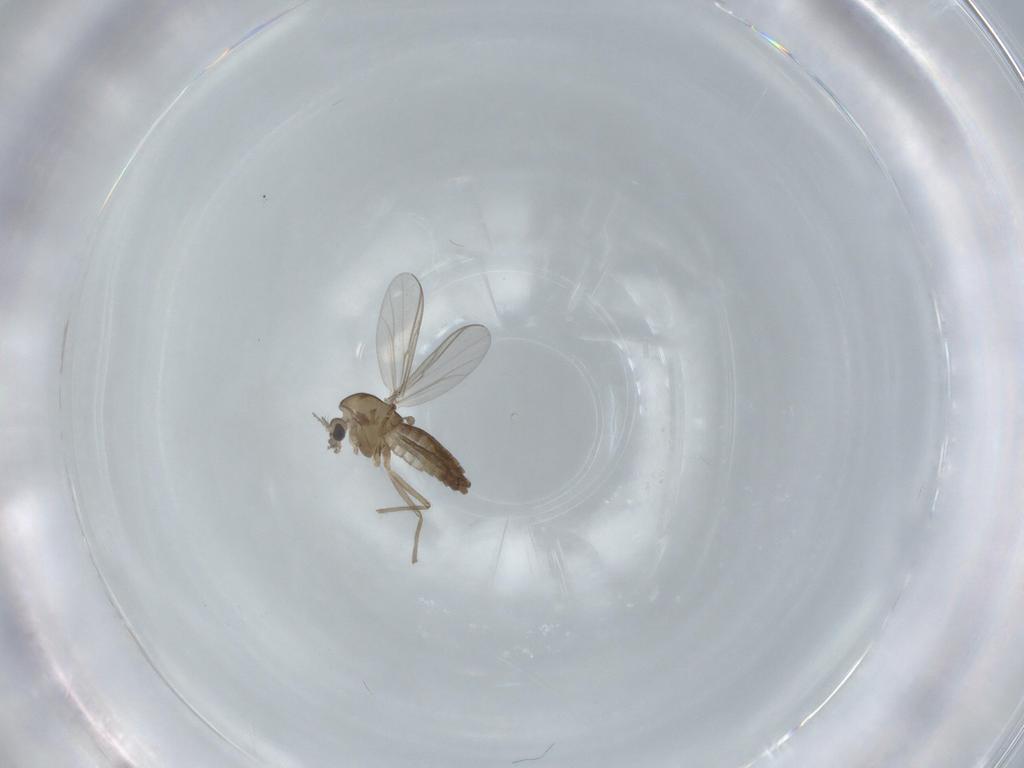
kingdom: Animalia
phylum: Arthropoda
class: Insecta
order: Diptera
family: Chironomidae
